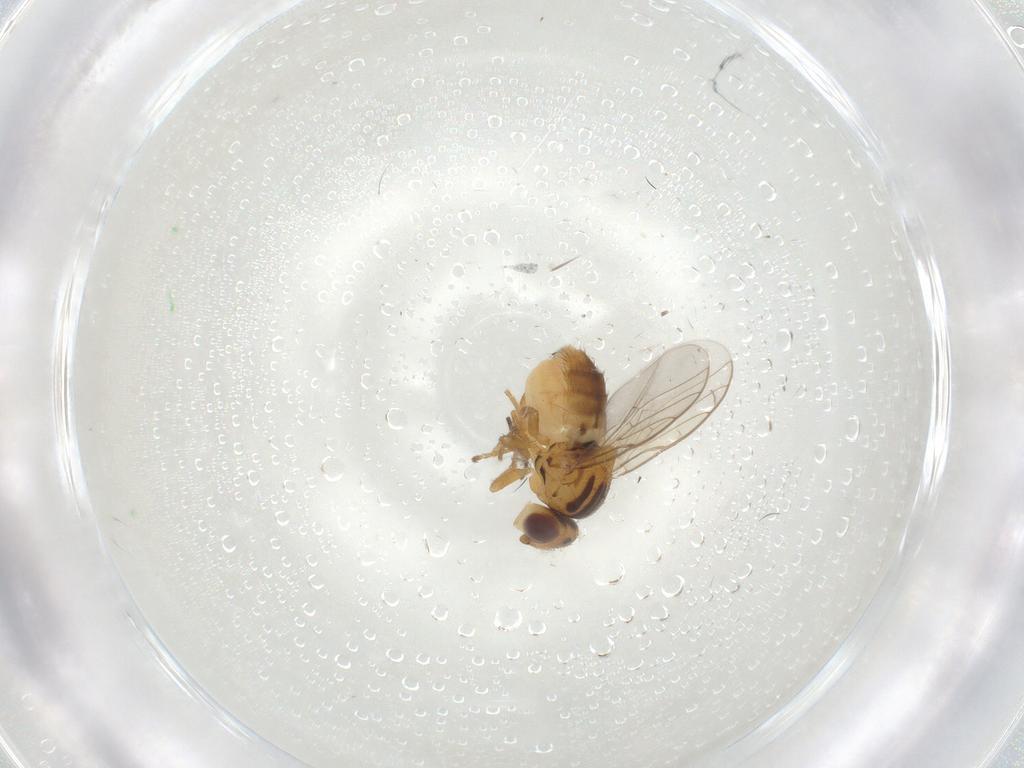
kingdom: Animalia
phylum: Arthropoda
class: Insecta
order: Diptera
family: Chloropidae
